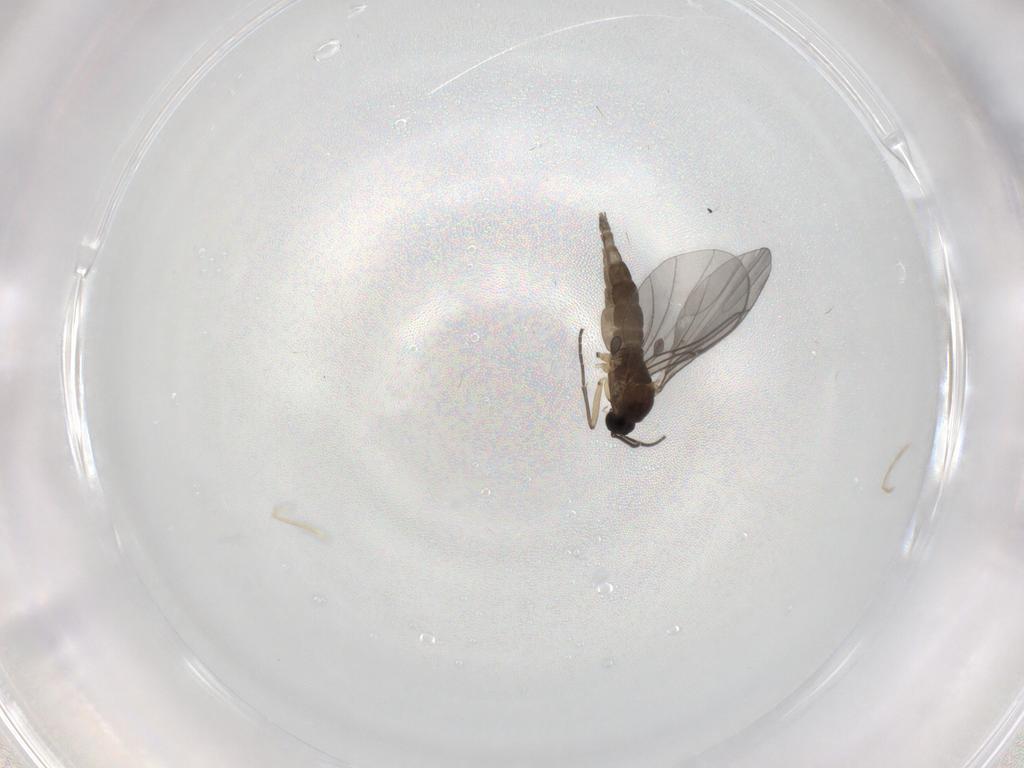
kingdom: Animalia
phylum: Arthropoda
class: Insecta
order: Diptera
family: Sciaridae
